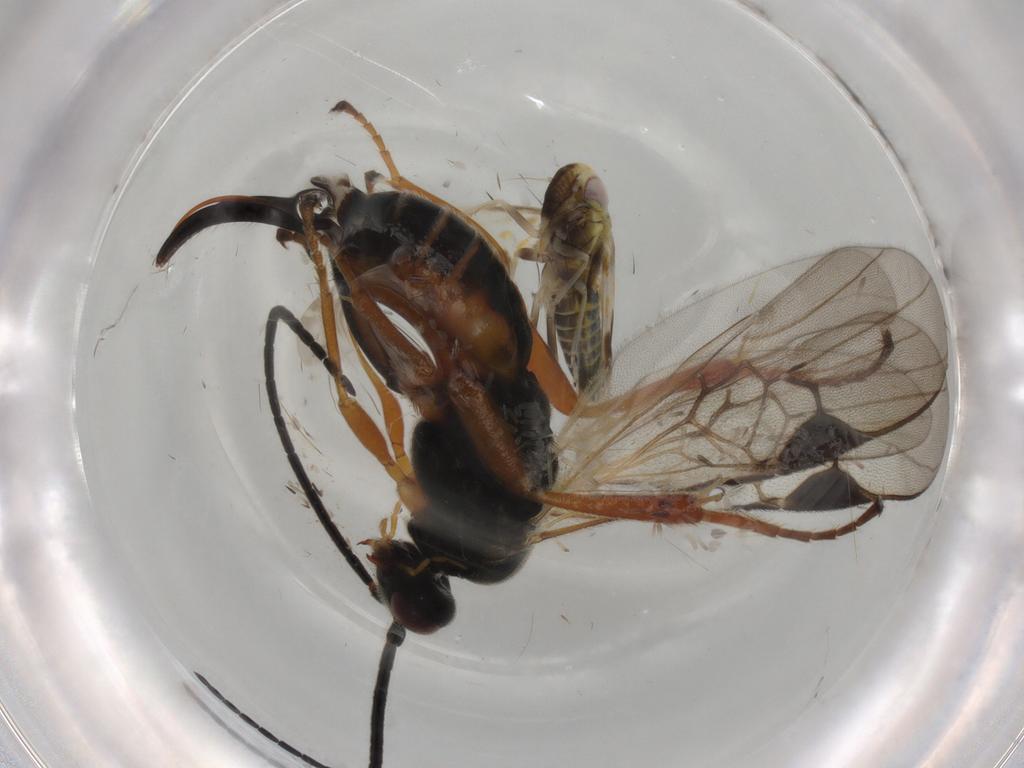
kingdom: Animalia
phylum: Arthropoda
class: Insecta
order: Hemiptera
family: Cicadellidae
